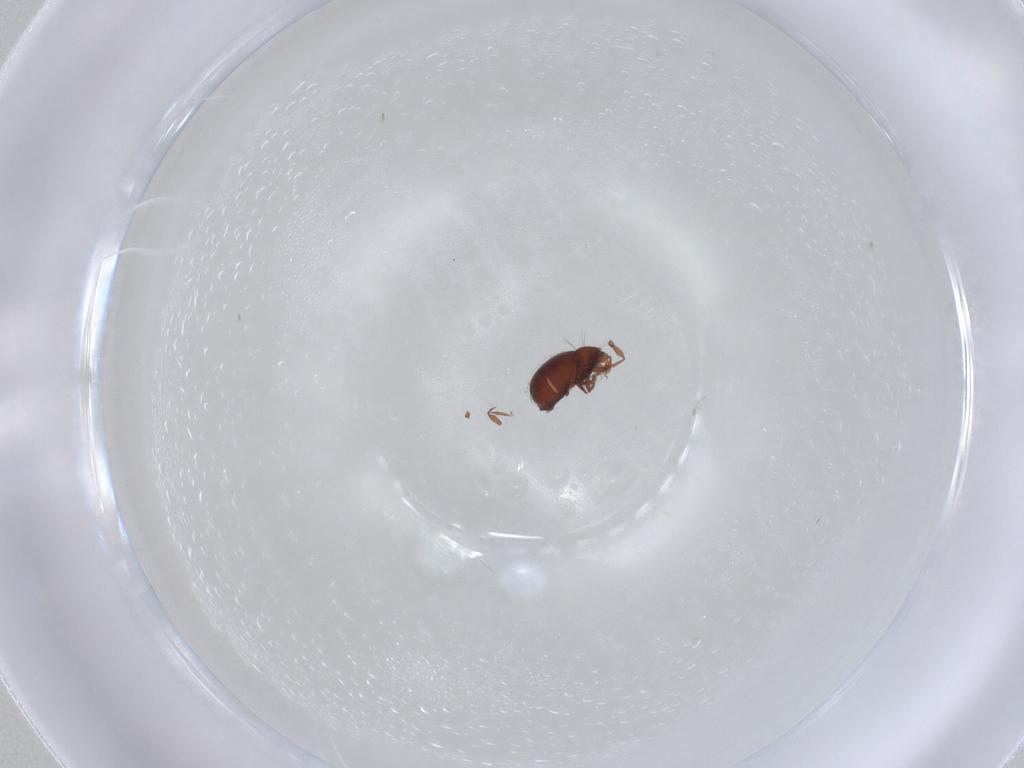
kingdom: Animalia
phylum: Arthropoda
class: Arachnida
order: Sarcoptiformes
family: Oribatulidae
